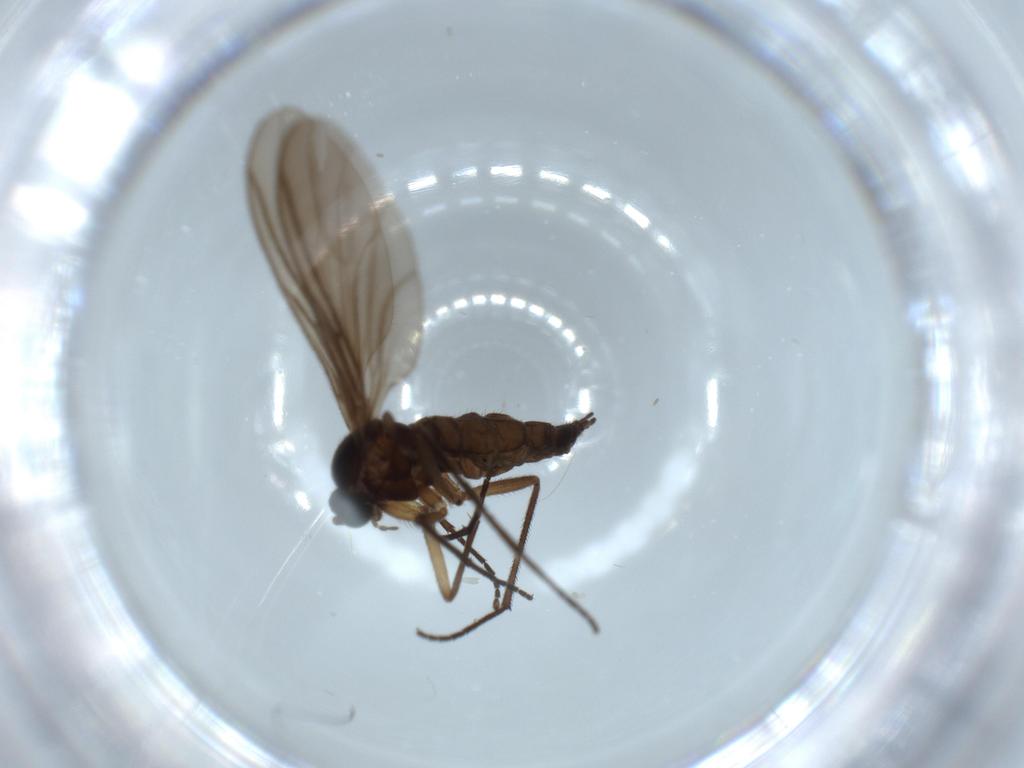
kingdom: Animalia
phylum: Arthropoda
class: Insecta
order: Diptera
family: Sciaridae
